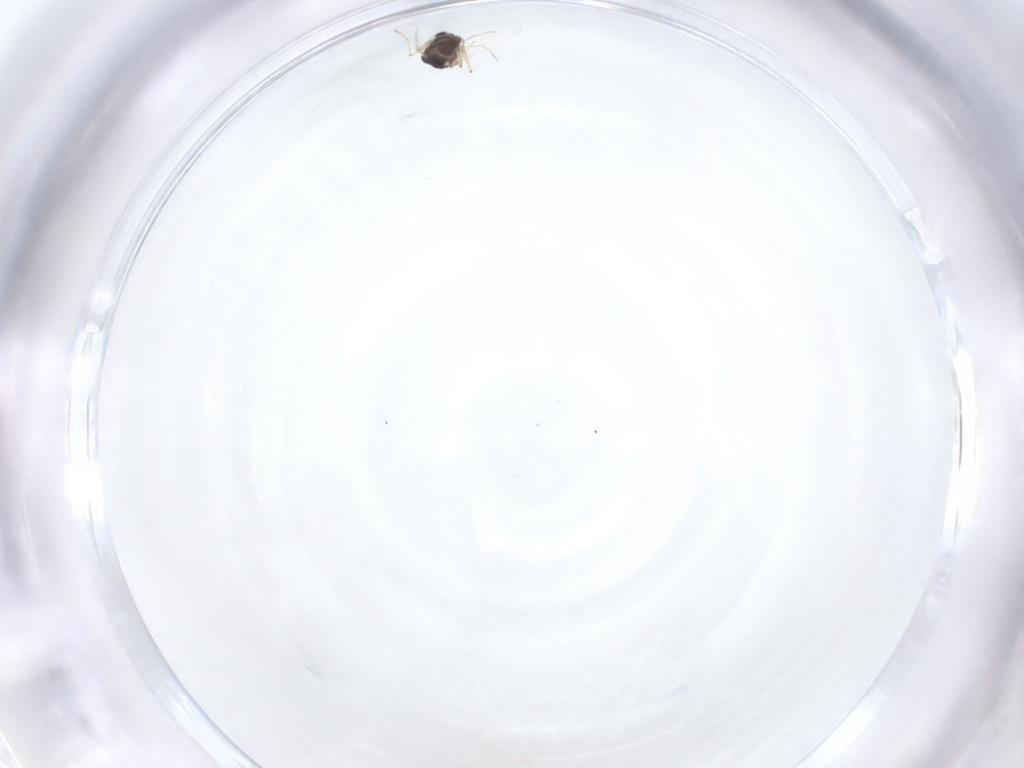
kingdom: Animalia
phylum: Arthropoda
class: Insecta
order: Diptera
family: Chironomidae
